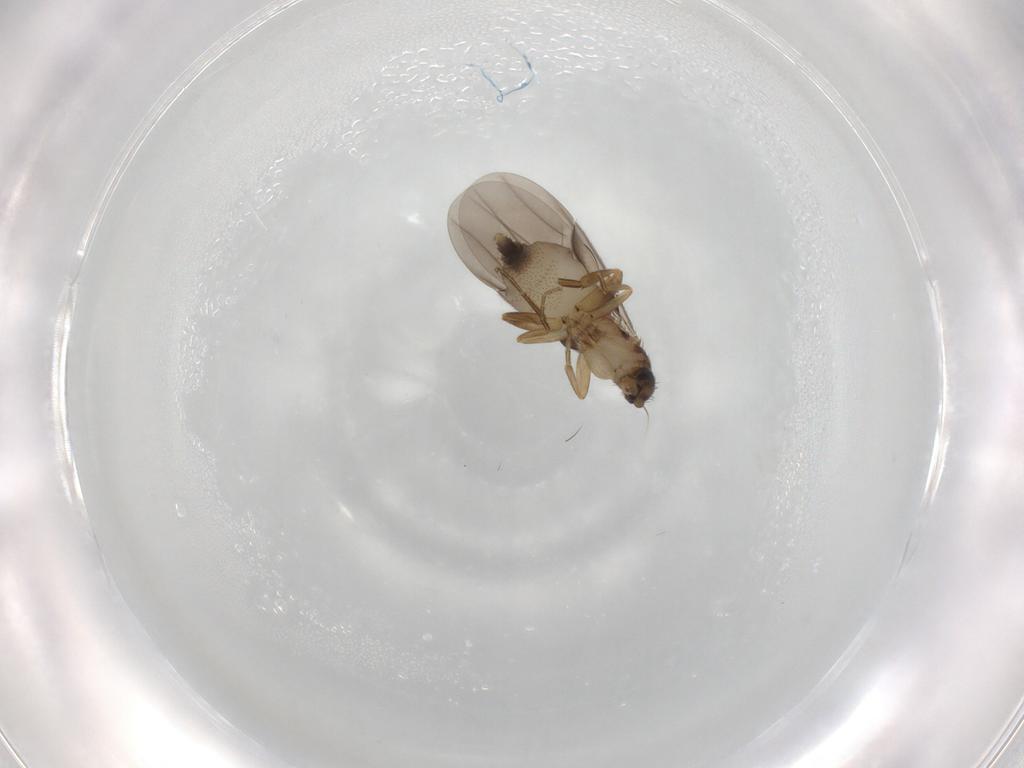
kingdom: Animalia
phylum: Arthropoda
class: Insecta
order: Diptera
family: Phoridae
